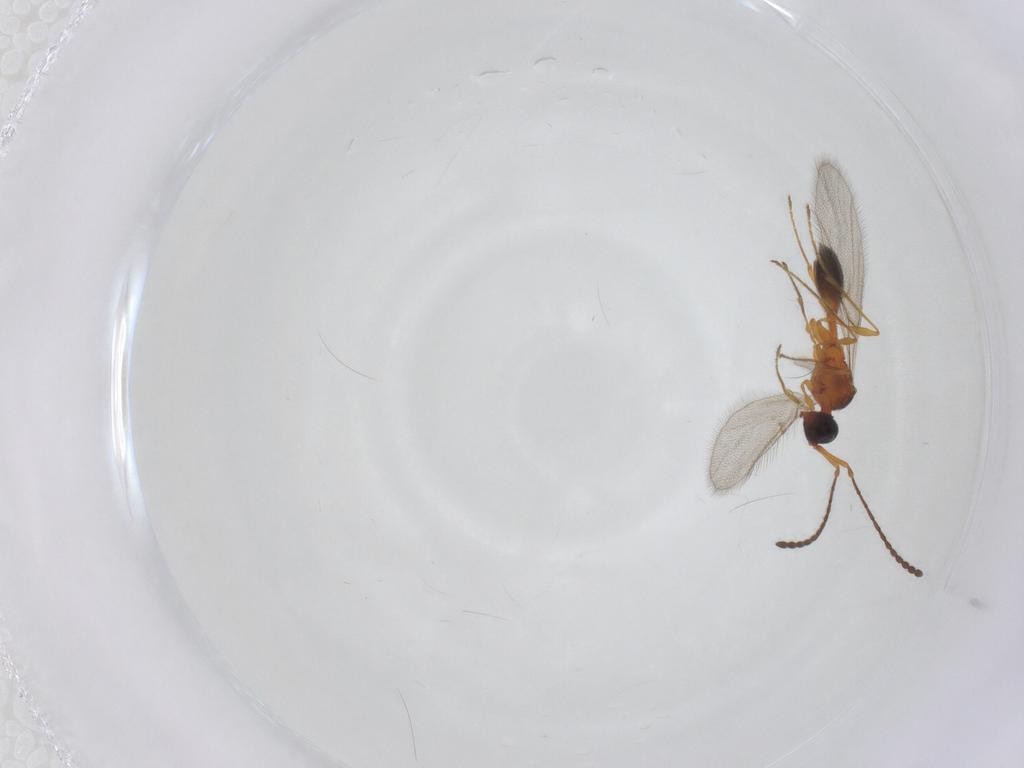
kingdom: Animalia
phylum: Arthropoda
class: Insecta
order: Hymenoptera
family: Diapriidae
